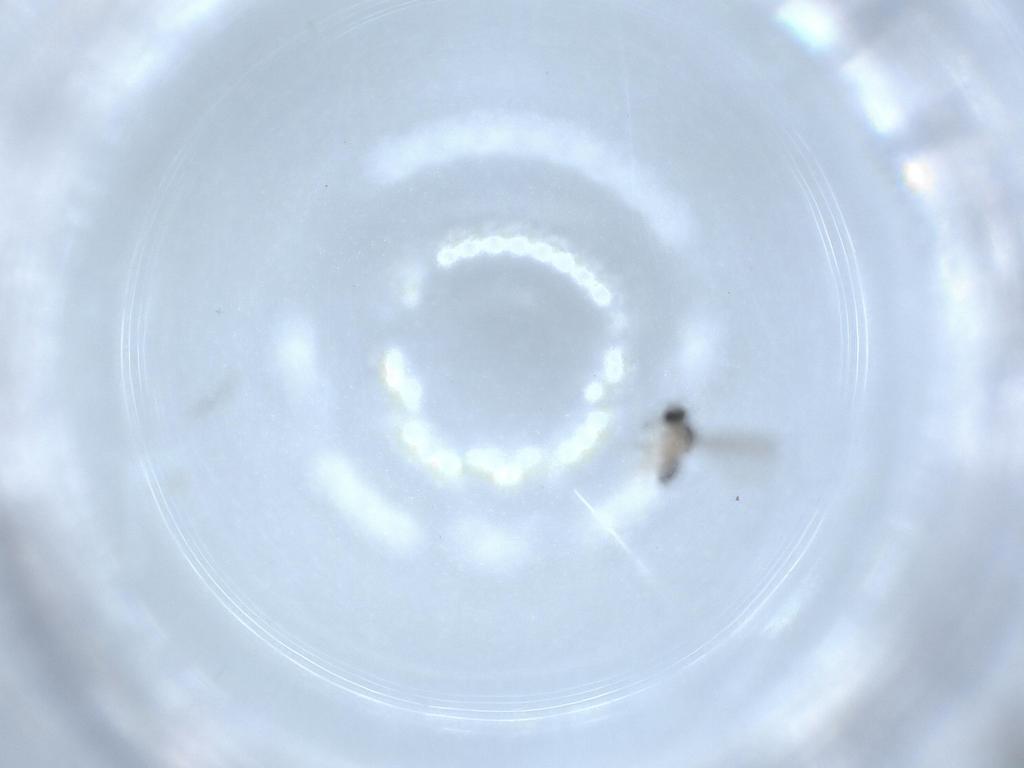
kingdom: Animalia
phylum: Arthropoda
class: Insecta
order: Diptera
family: Cecidomyiidae
